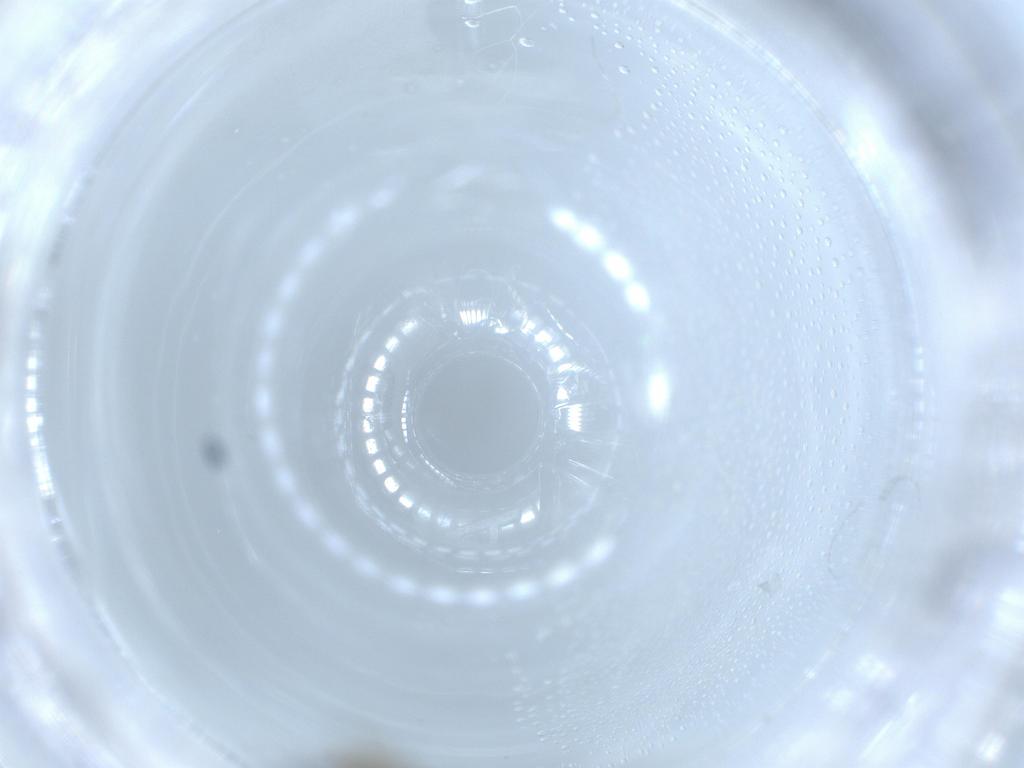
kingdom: Animalia
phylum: Arthropoda
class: Insecta
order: Diptera
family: Sciaridae
